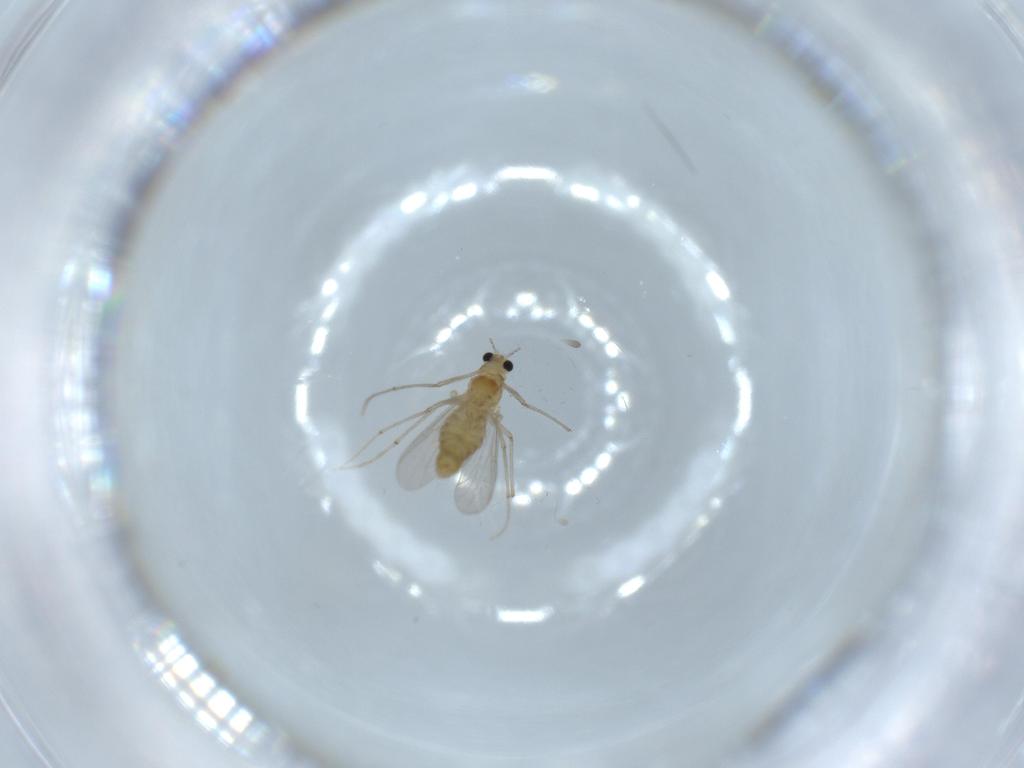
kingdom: Animalia
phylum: Arthropoda
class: Insecta
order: Diptera
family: Chironomidae
